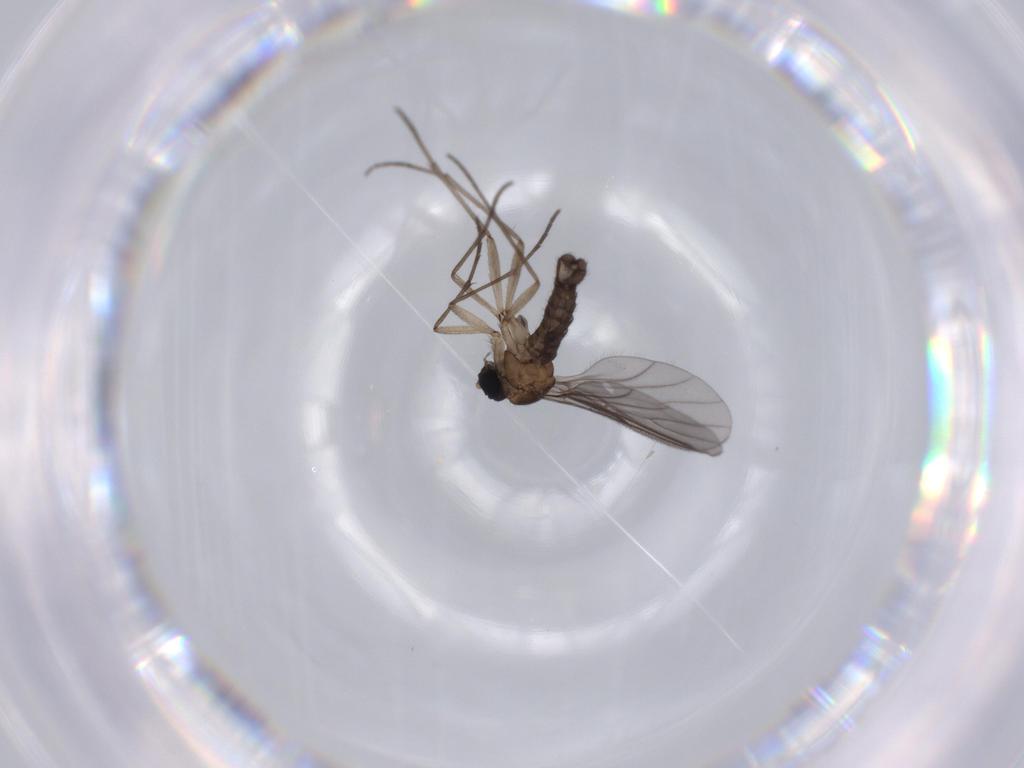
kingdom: Animalia
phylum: Arthropoda
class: Insecta
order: Diptera
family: Sciaridae
